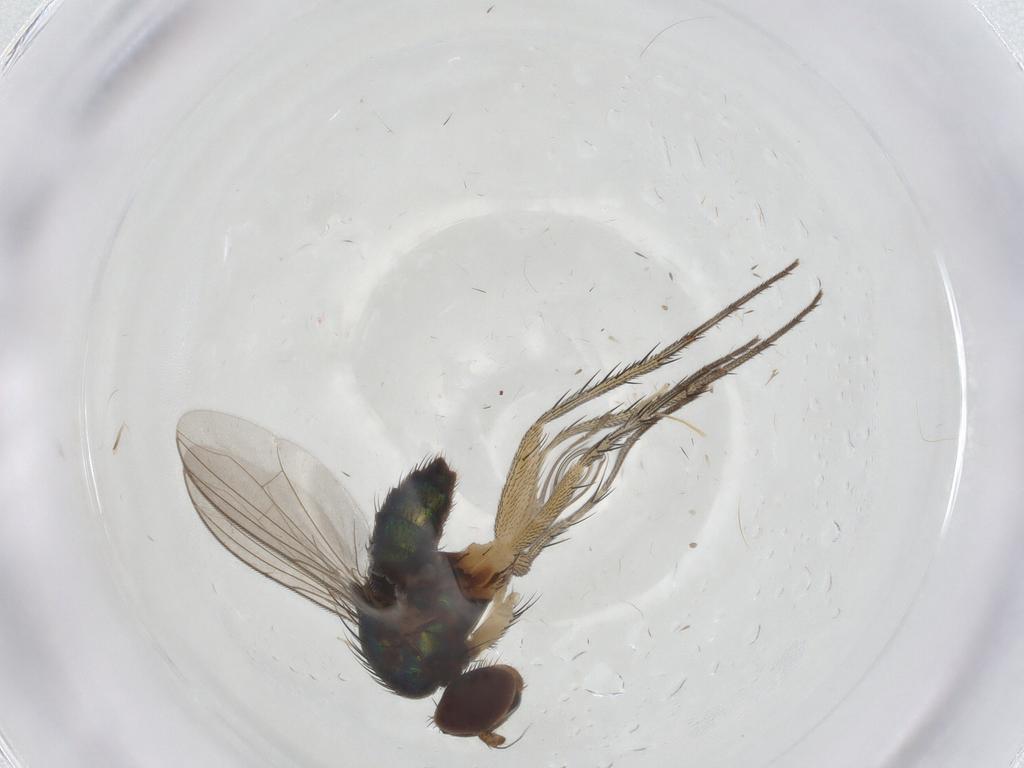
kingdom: Animalia
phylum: Arthropoda
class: Insecta
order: Diptera
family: Dolichopodidae
